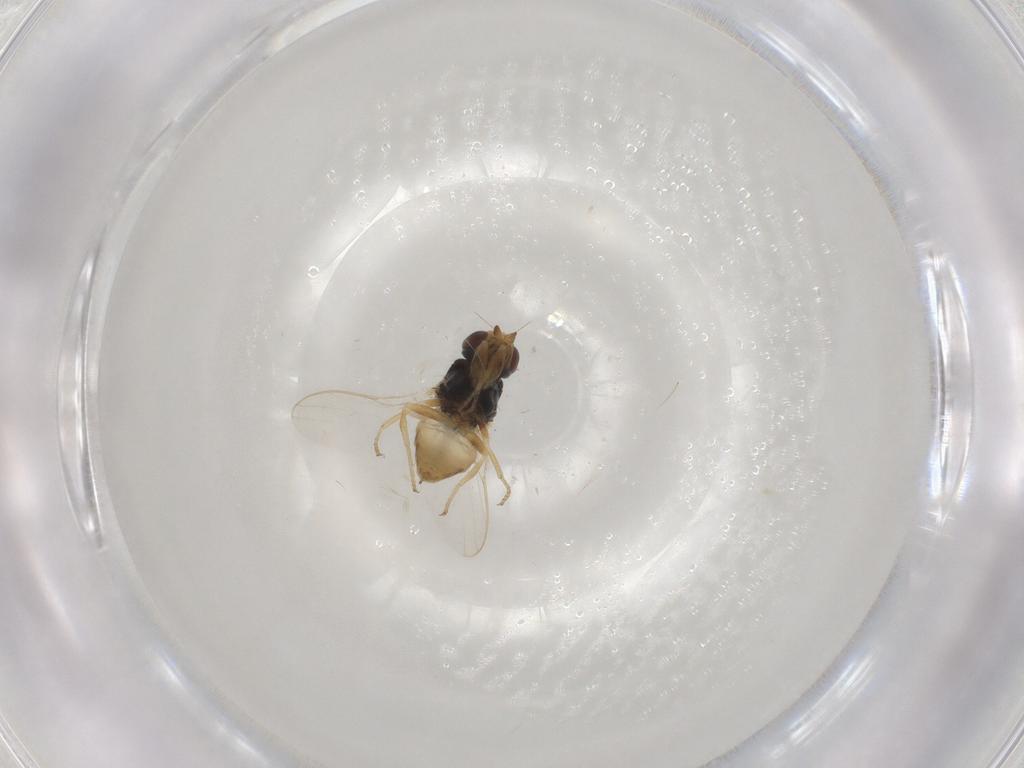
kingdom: Animalia
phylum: Arthropoda
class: Insecta
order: Diptera
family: Chloropidae
